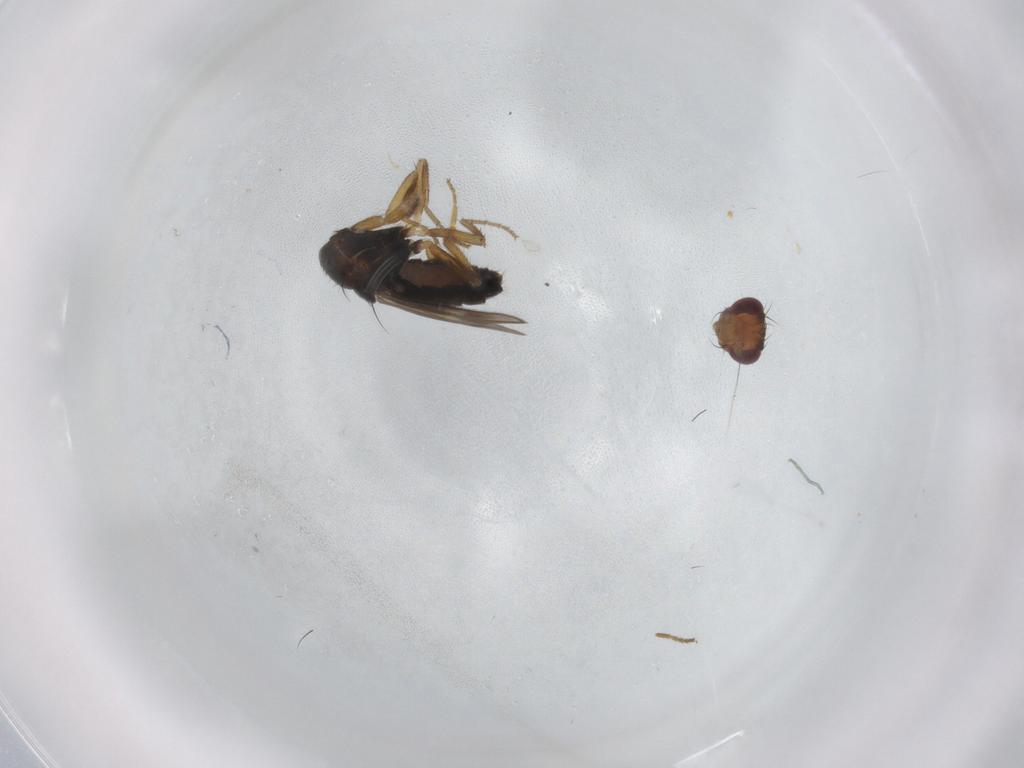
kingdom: Animalia
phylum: Arthropoda
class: Insecta
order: Diptera
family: Sphaeroceridae
